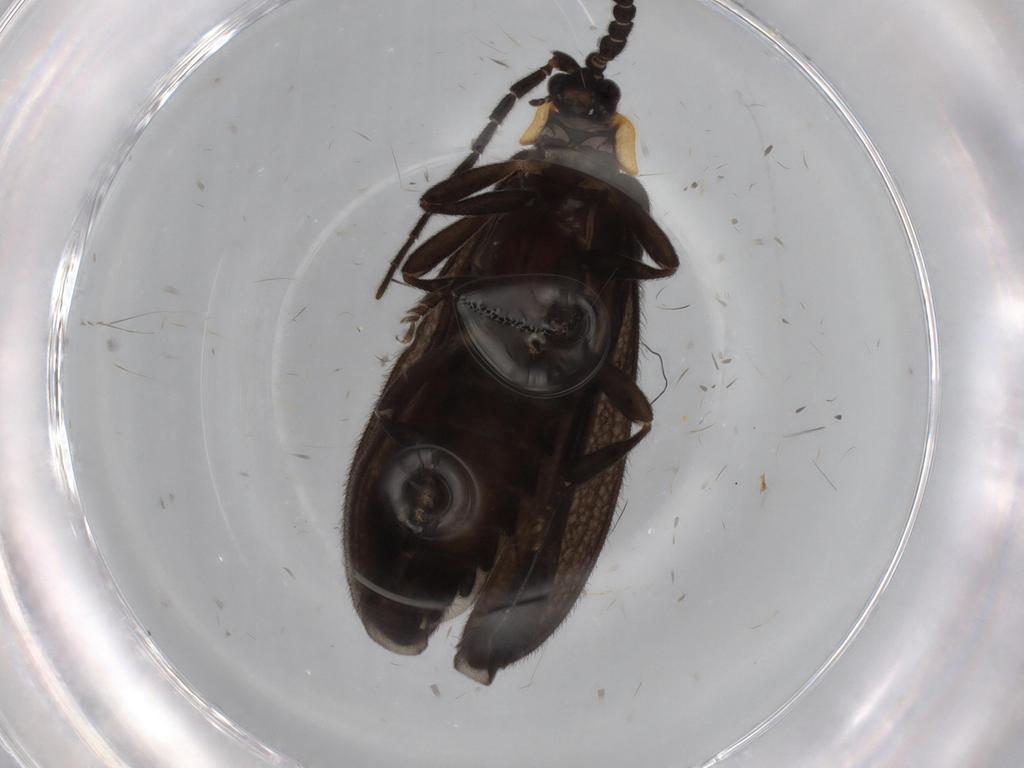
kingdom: Animalia
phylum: Arthropoda
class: Insecta
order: Coleoptera
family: Lycidae
